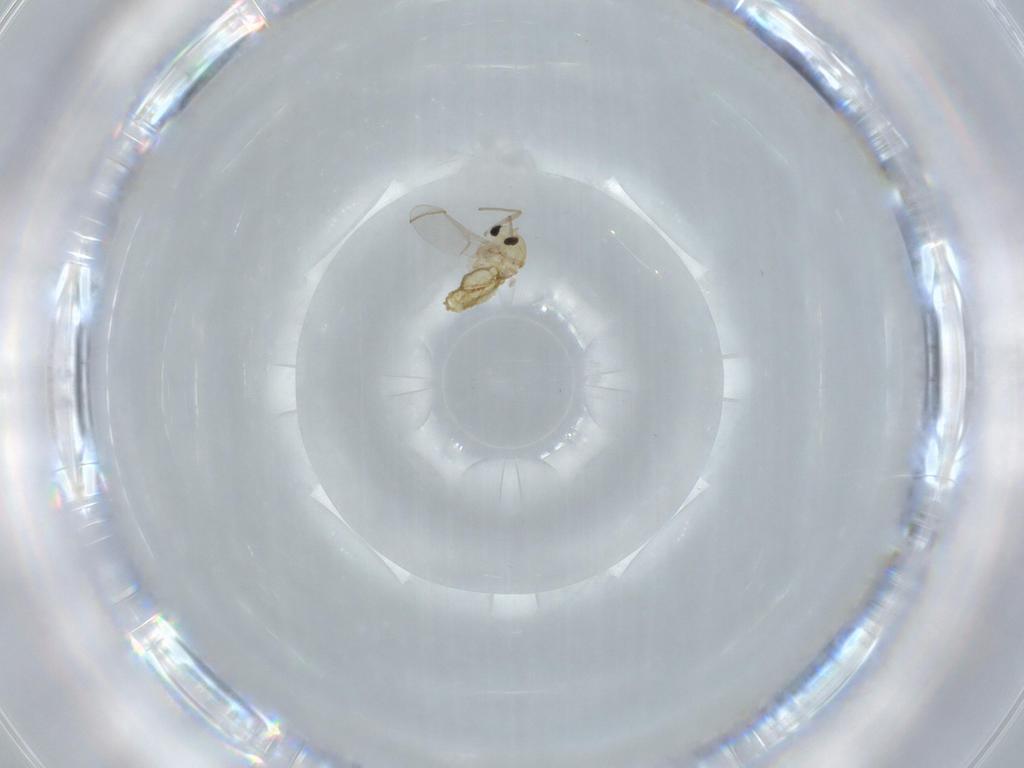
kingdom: Animalia
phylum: Arthropoda
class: Insecta
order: Diptera
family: Chironomidae
